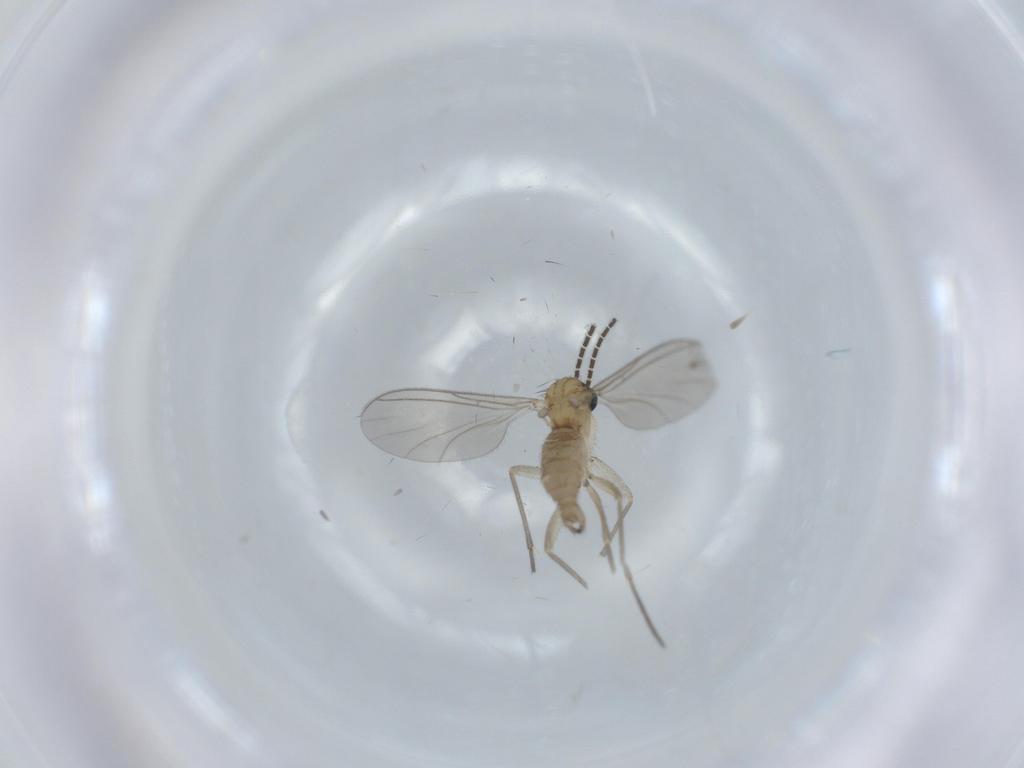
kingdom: Animalia
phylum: Arthropoda
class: Insecta
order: Diptera
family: Sciaridae
